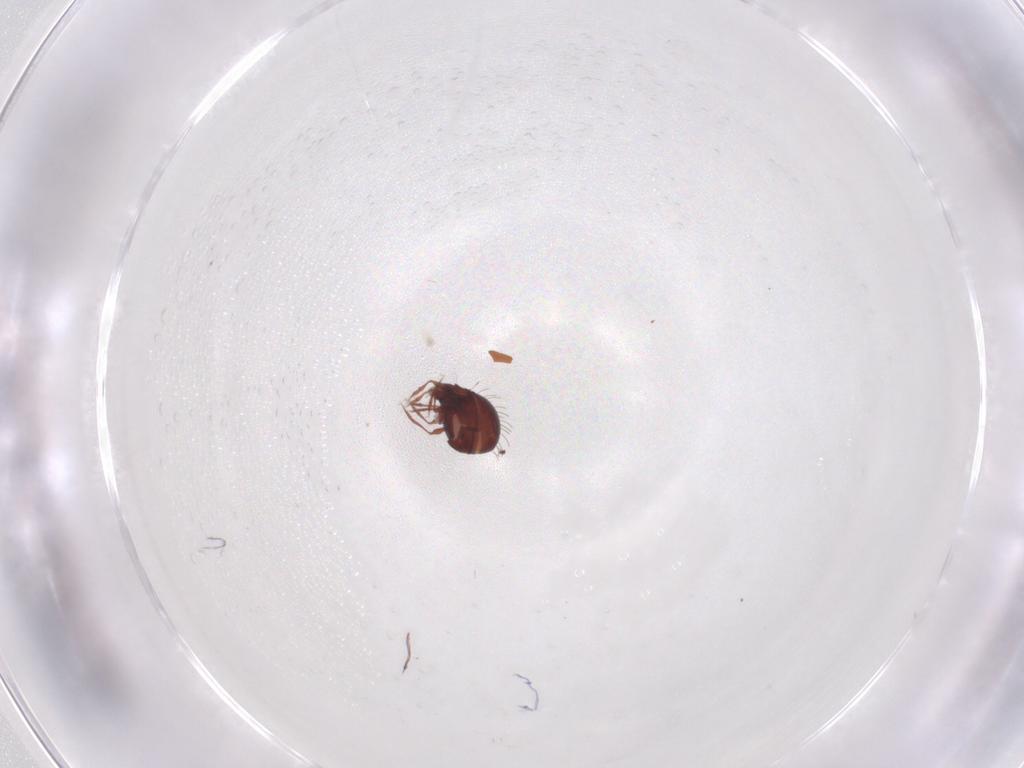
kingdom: Animalia
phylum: Arthropoda
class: Arachnida
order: Sarcoptiformes
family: Caloppiidae
